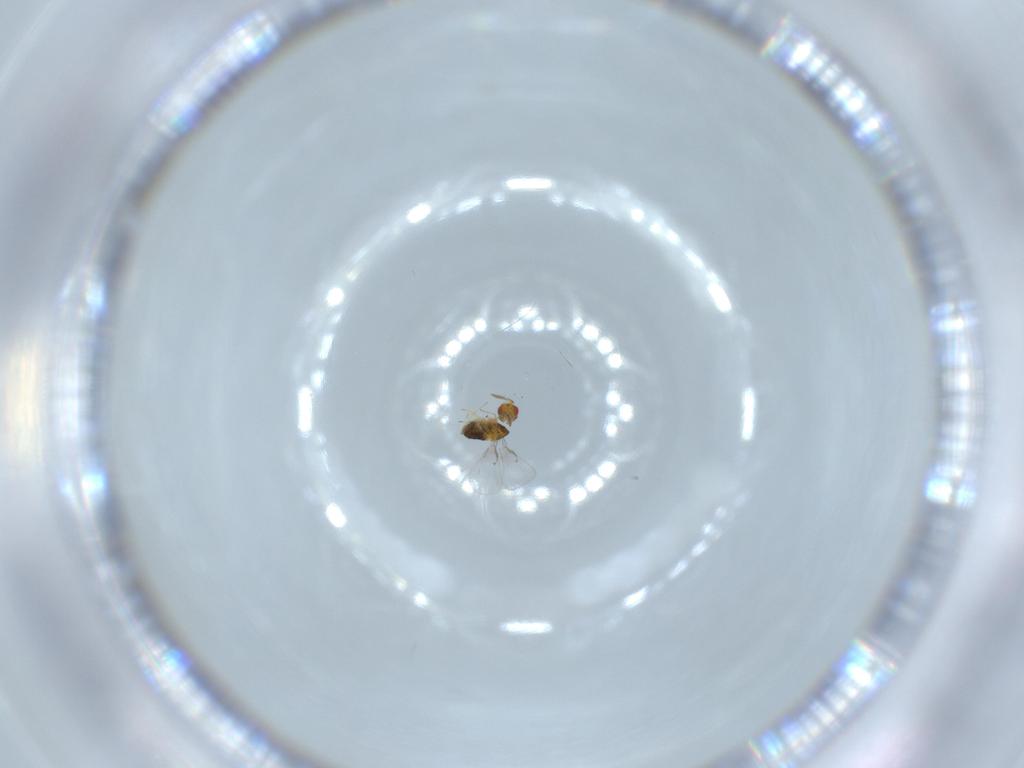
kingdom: Animalia
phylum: Arthropoda
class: Insecta
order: Hymenoptera
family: Trichogrammatidae
